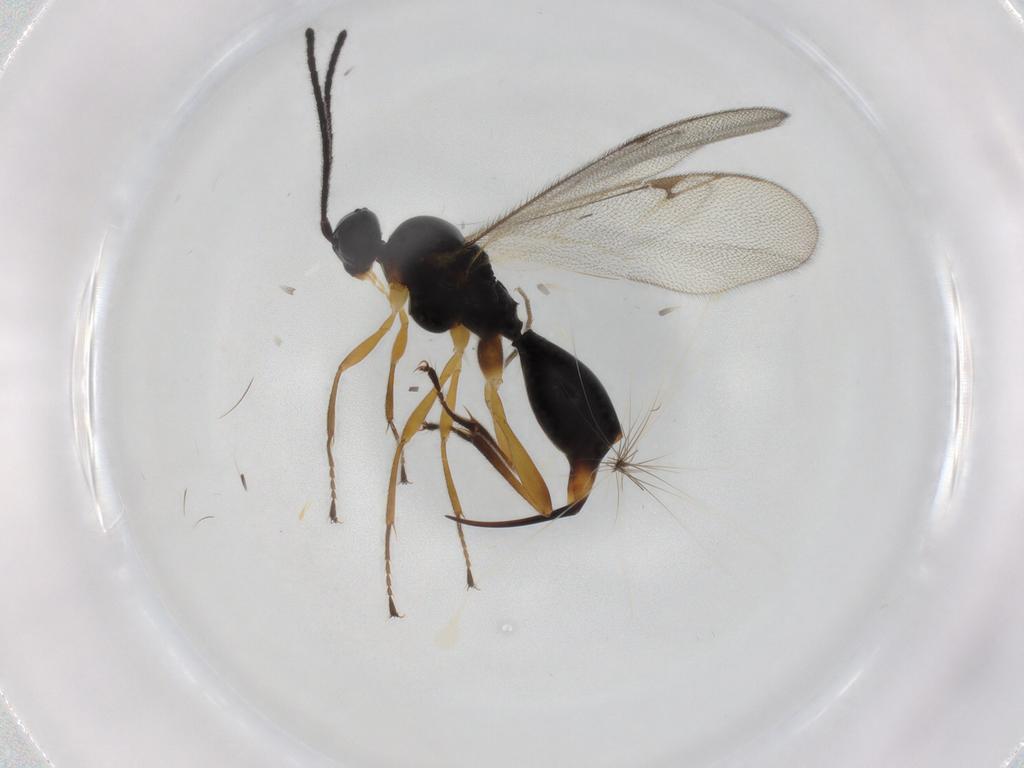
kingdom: Animalia
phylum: Arthropoda
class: Insecta
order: Hymenoptera
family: Proctotrupidae
